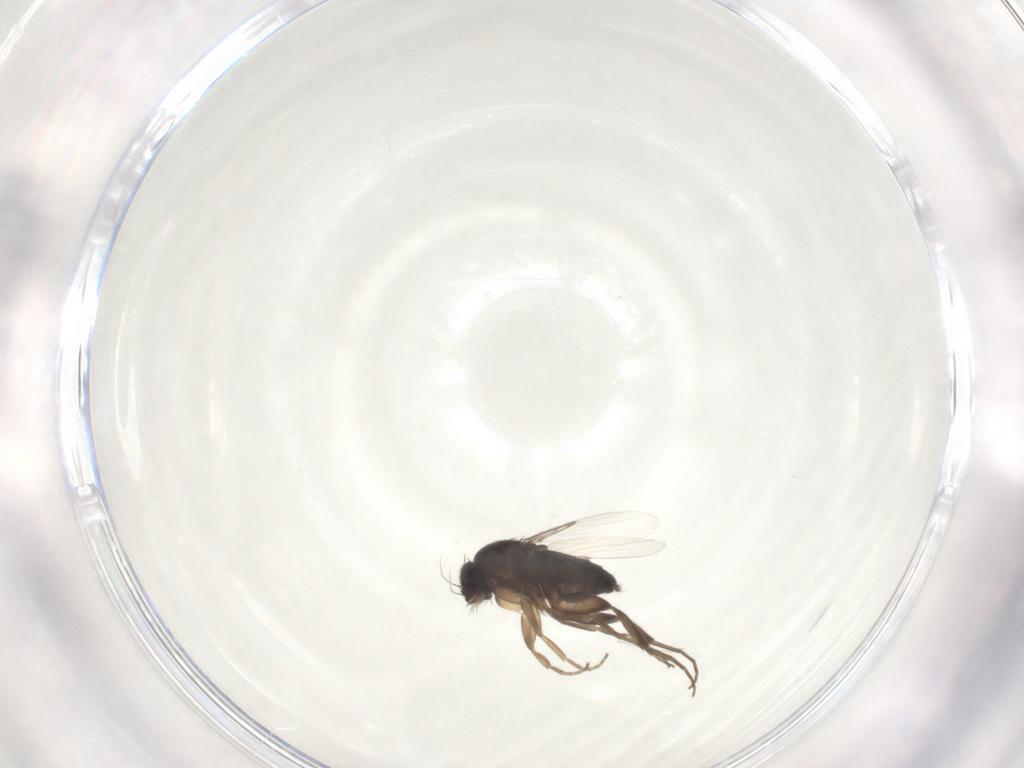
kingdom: Animalia
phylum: Arthropoda
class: Insecta
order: Diptera
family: Phoridae
